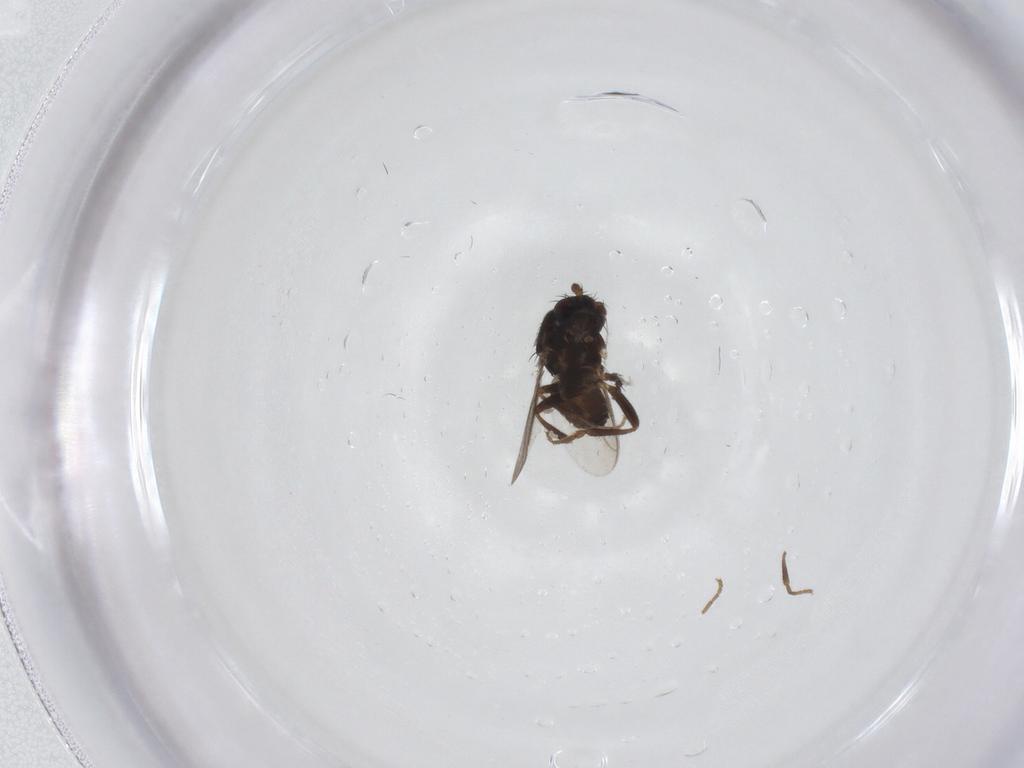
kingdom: Animalia
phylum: Arthropoda
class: Insecta
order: Diptera
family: Sphaeroceridae
